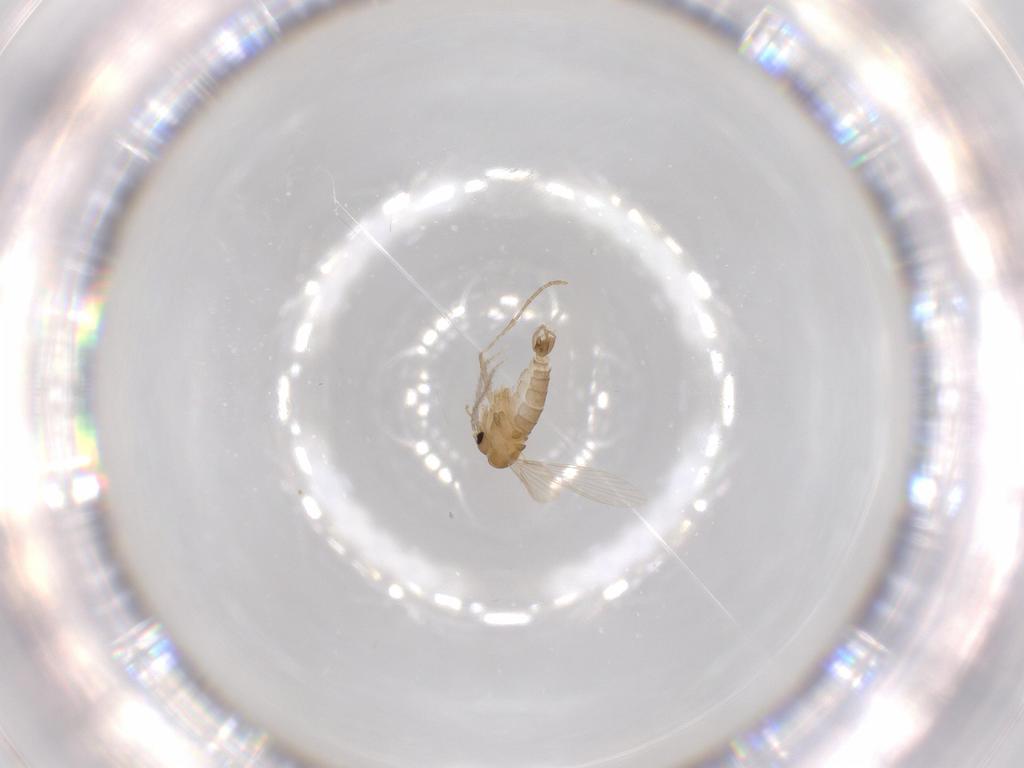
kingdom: Animalia
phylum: Arthropoda
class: Insecta
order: Diptera
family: Psychodidae
